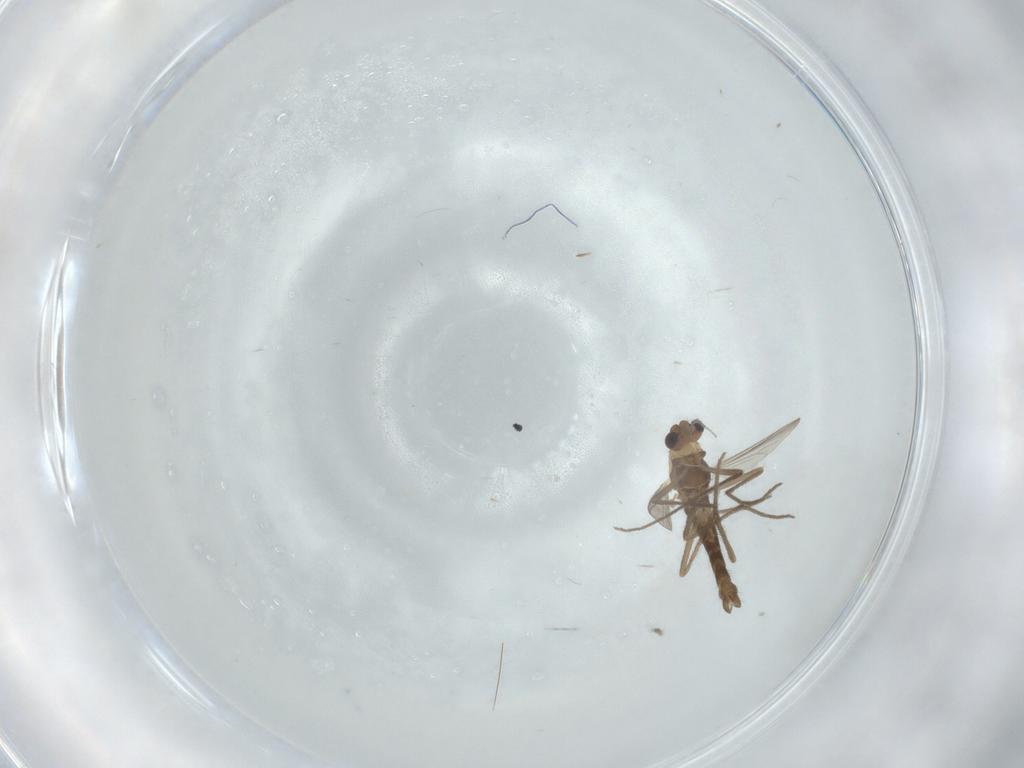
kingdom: Animalia
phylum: Arthropoda
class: Insecta
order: Diptera
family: Chironomidae
